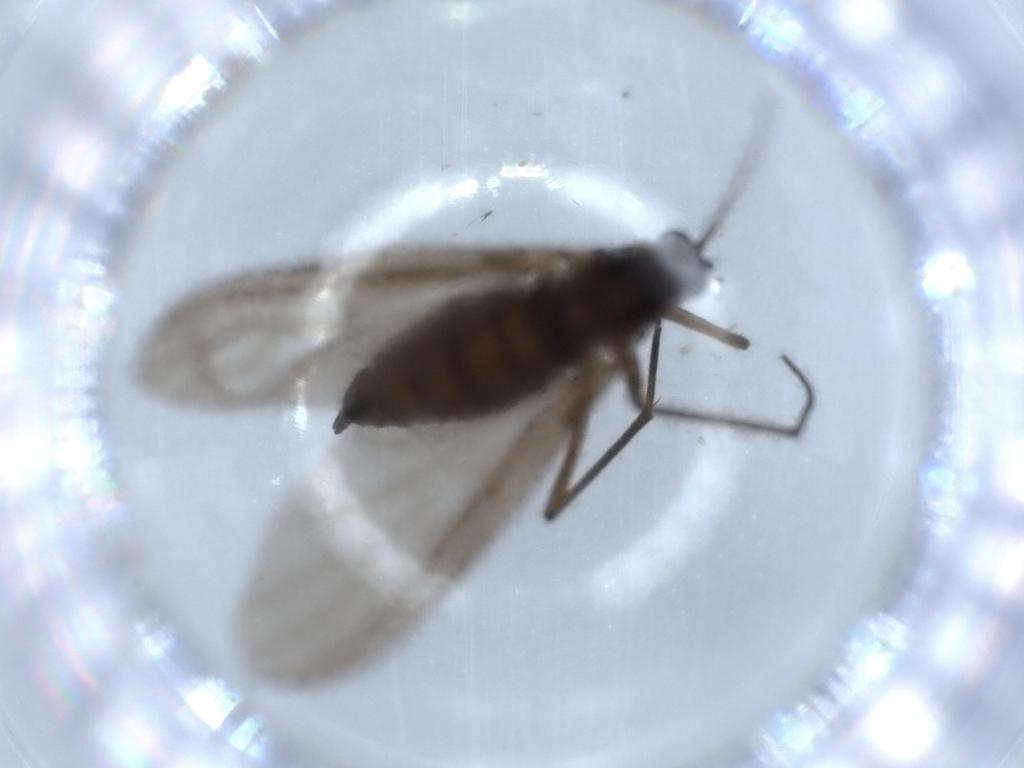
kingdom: Animalia
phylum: Arthropoda
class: Insecta
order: Diptera
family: Sciaridae
